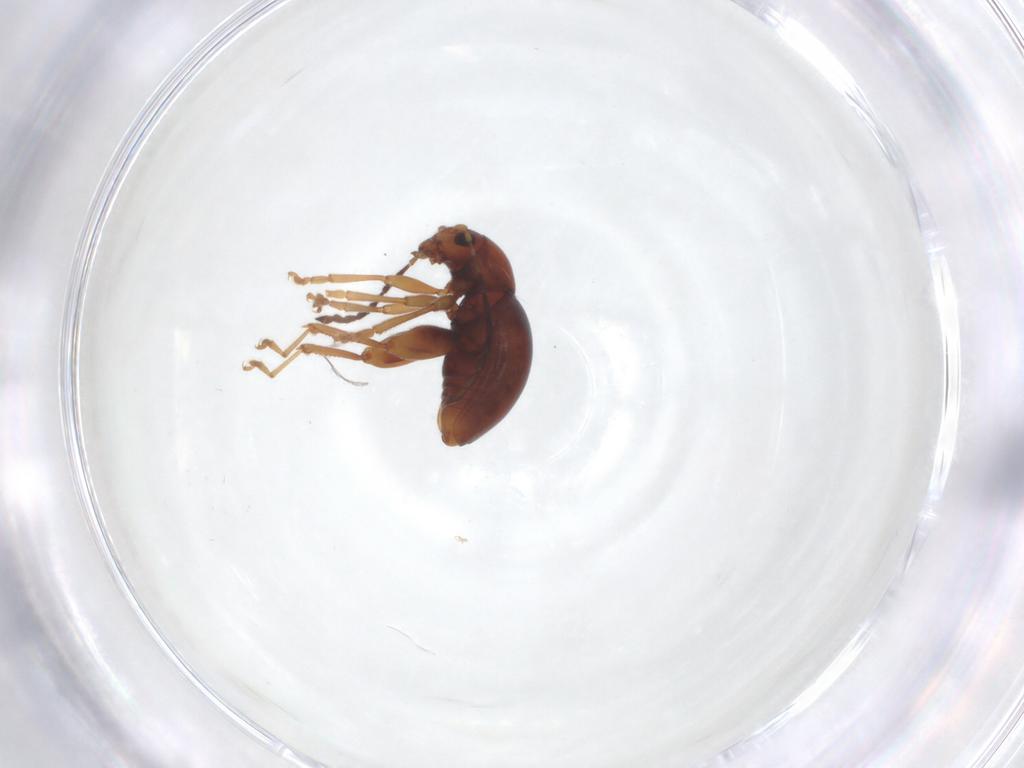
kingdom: Animalia
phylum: Arthropoda
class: Insecta
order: Coleoptera
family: Chrysomelidae
